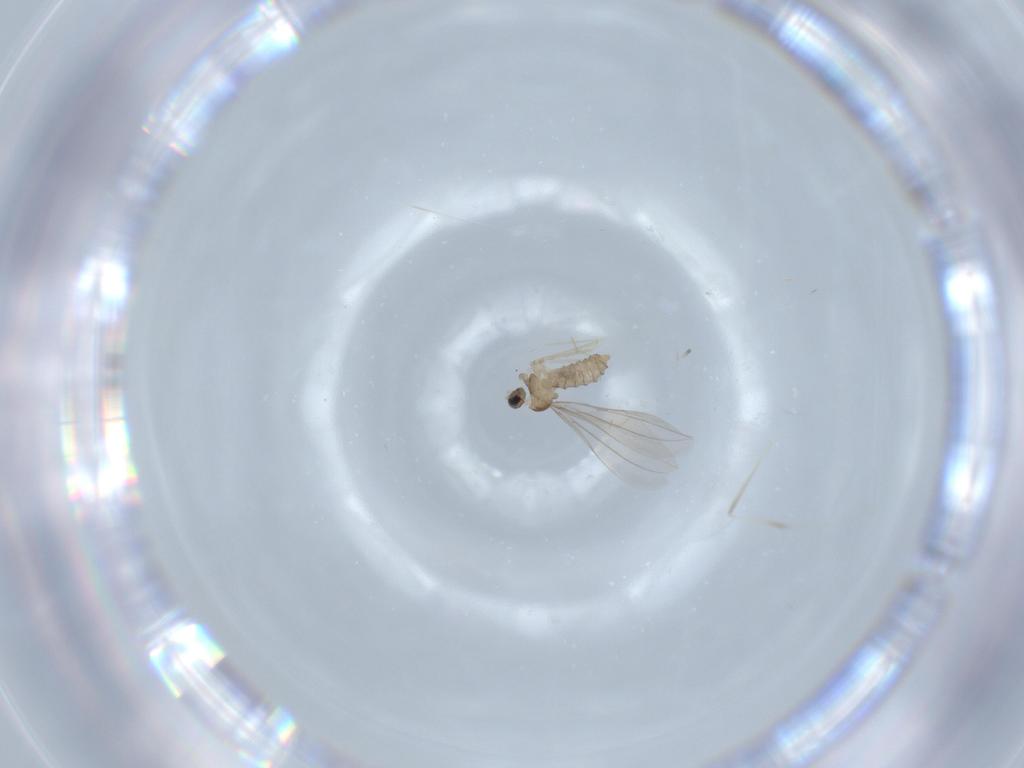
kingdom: Animalia
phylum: Arthropoda
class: Insecta
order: Diptera
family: Cecidomyiidae
